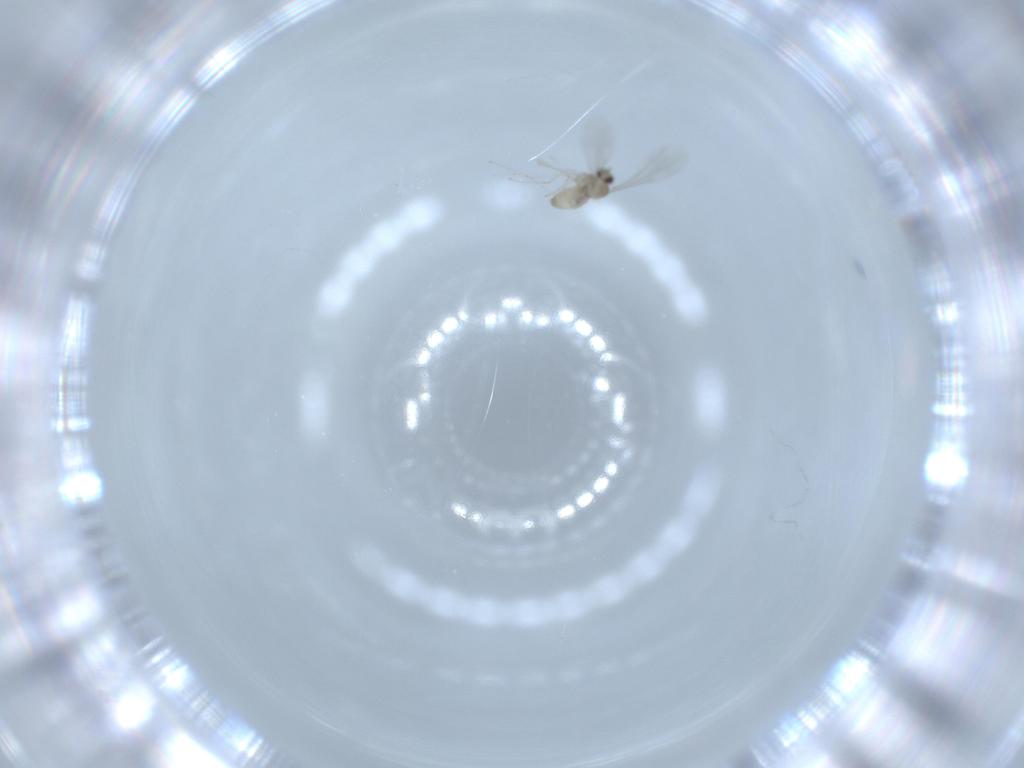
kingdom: Animalia
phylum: Arthropoda
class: Insecta
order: Diptera
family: Cecidomyiidae
